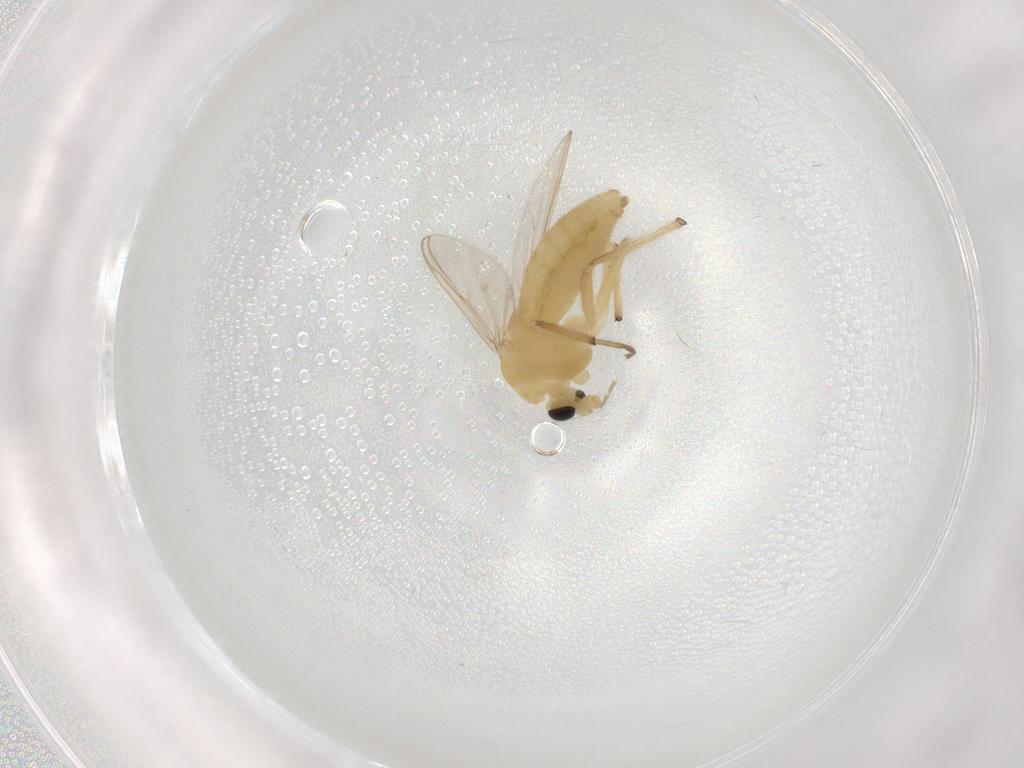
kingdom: Animalia
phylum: Arthropoda
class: Insecta
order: Diptera
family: Chironomidae
